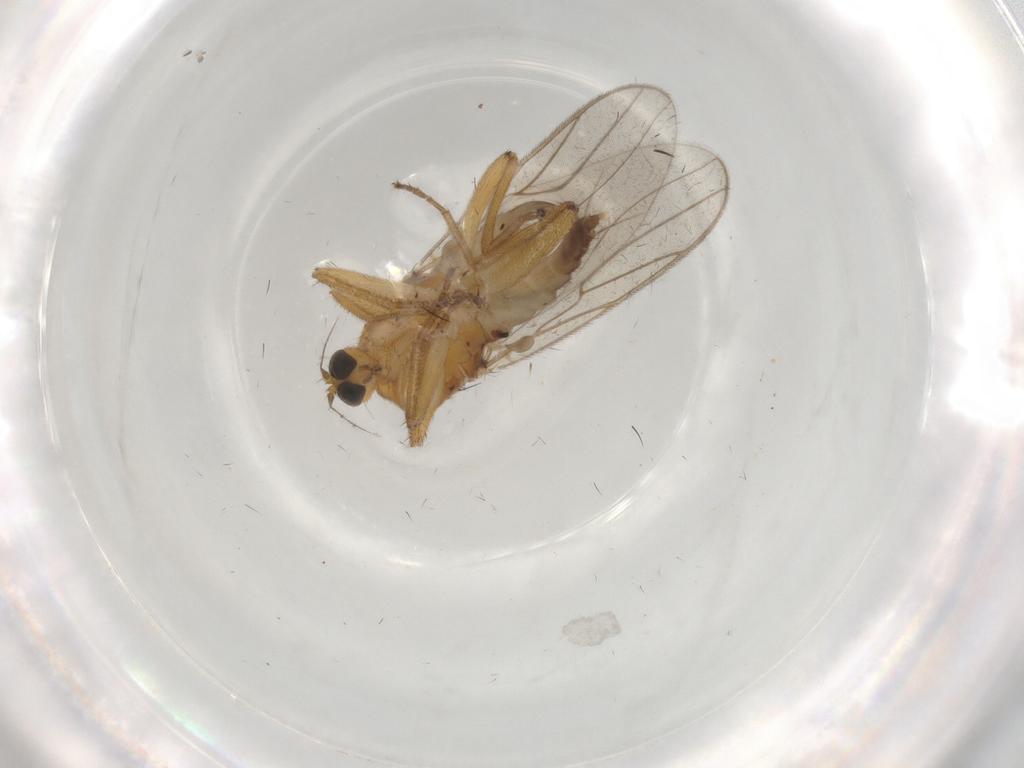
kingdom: Animalia
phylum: Arthropoda
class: Insecta
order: Diptera
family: Hybotidae
